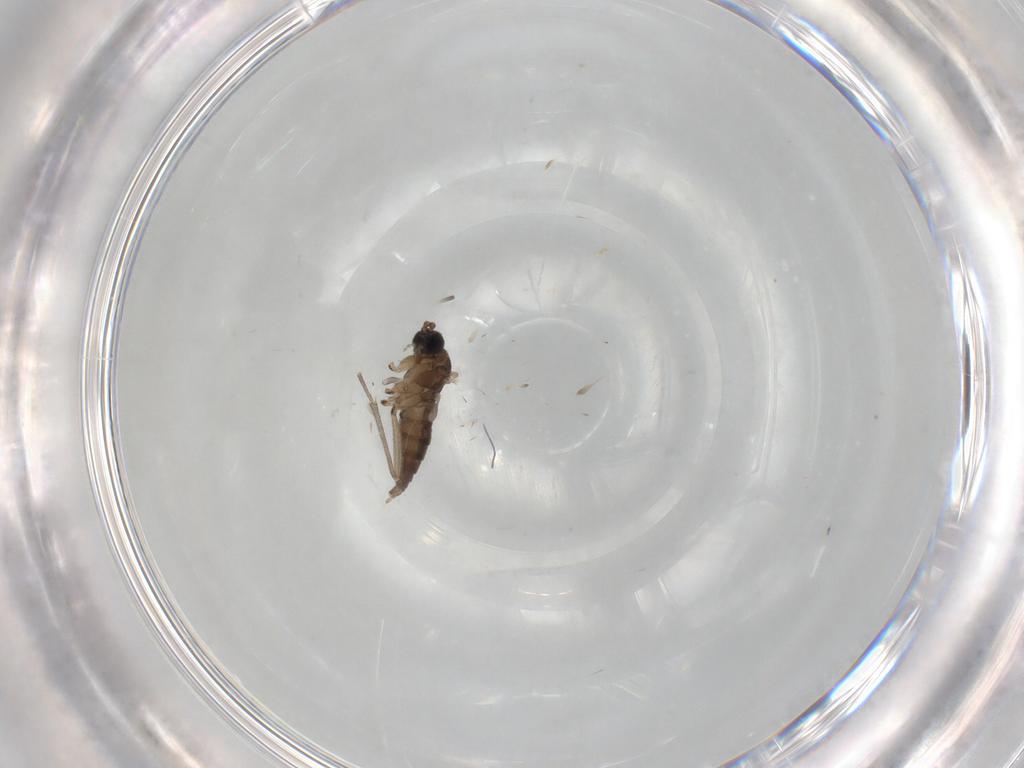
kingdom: Animalia
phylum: Arthropoda
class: Insecta
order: Diptera
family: Sciaridae
